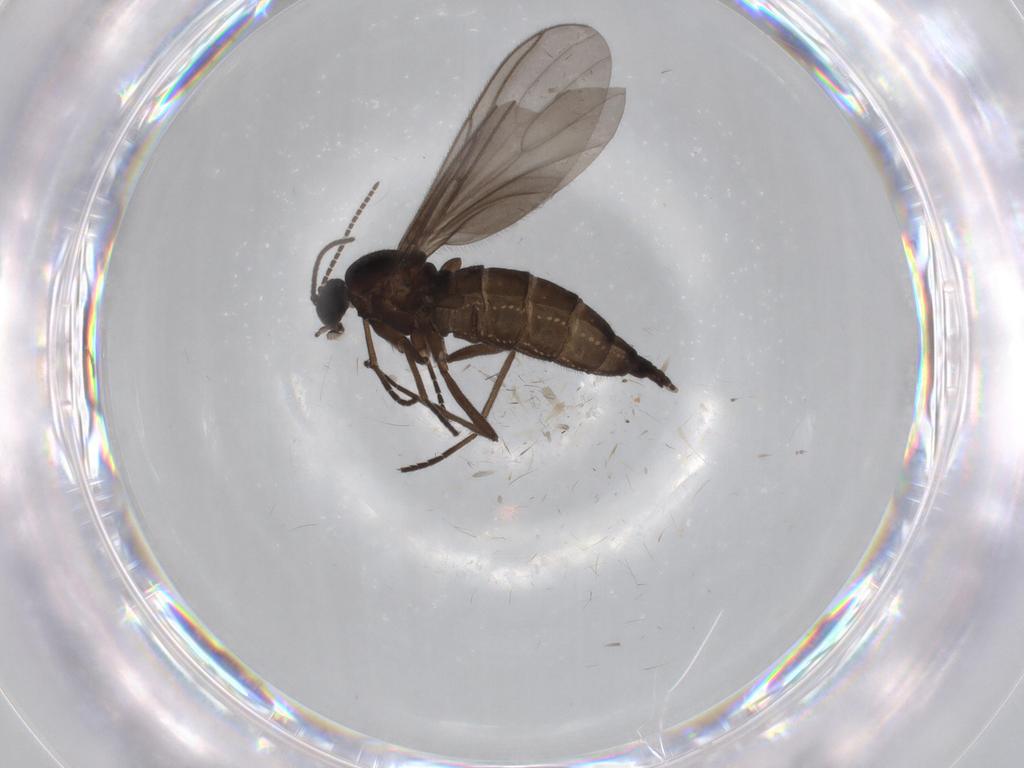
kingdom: Animalia
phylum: Arthropoda
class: Insecta
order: Diptera
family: Sciaridae
